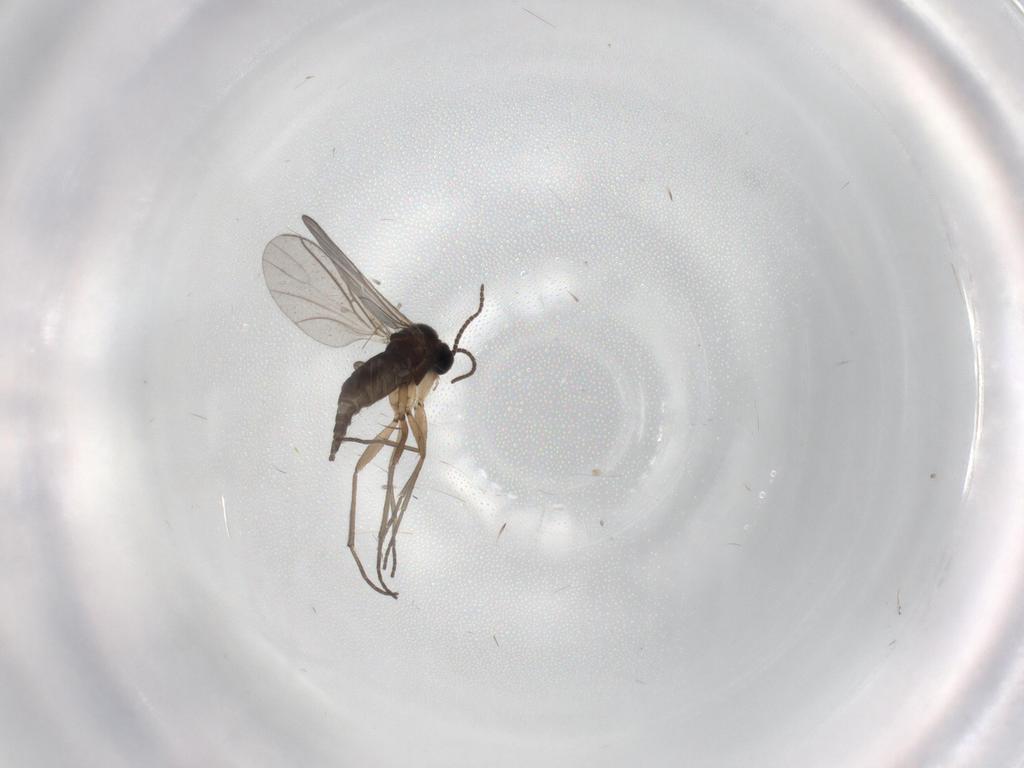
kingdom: Animalia
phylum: Arthropoda
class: Insecta
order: Diptera
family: Sciaridae
